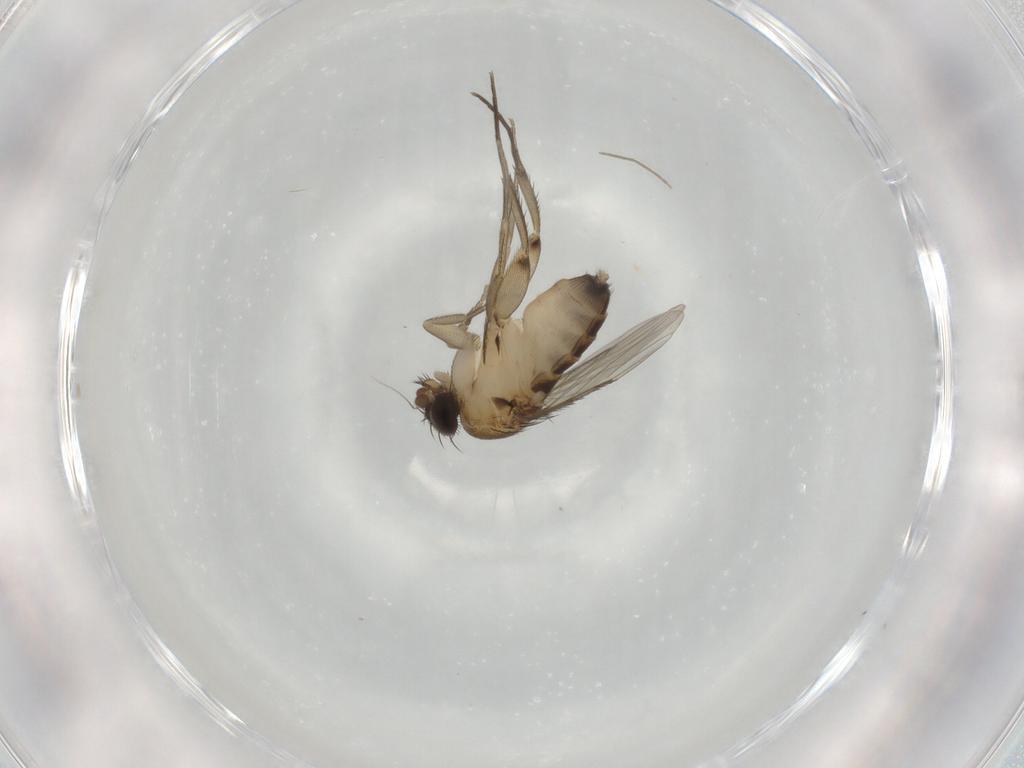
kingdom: Animalia
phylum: Arthropoda
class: Insecta
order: Diptera
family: Phoridae
